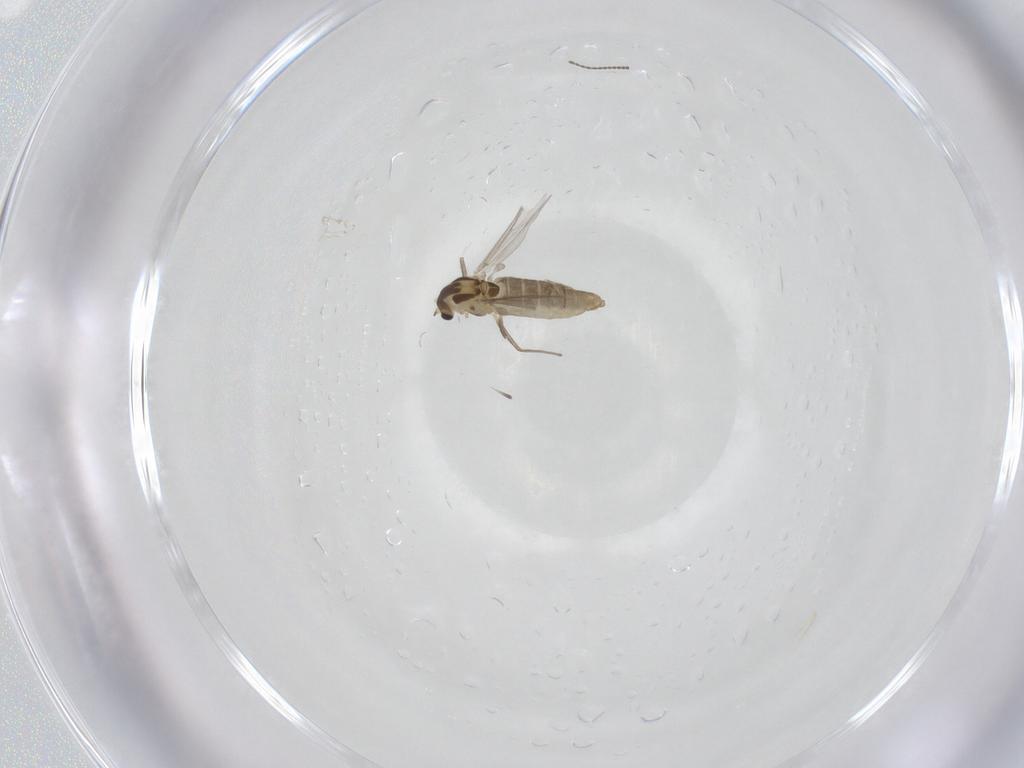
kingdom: Animalia
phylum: Arthropoda
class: Insecta
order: Diptera
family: Chironomidae
